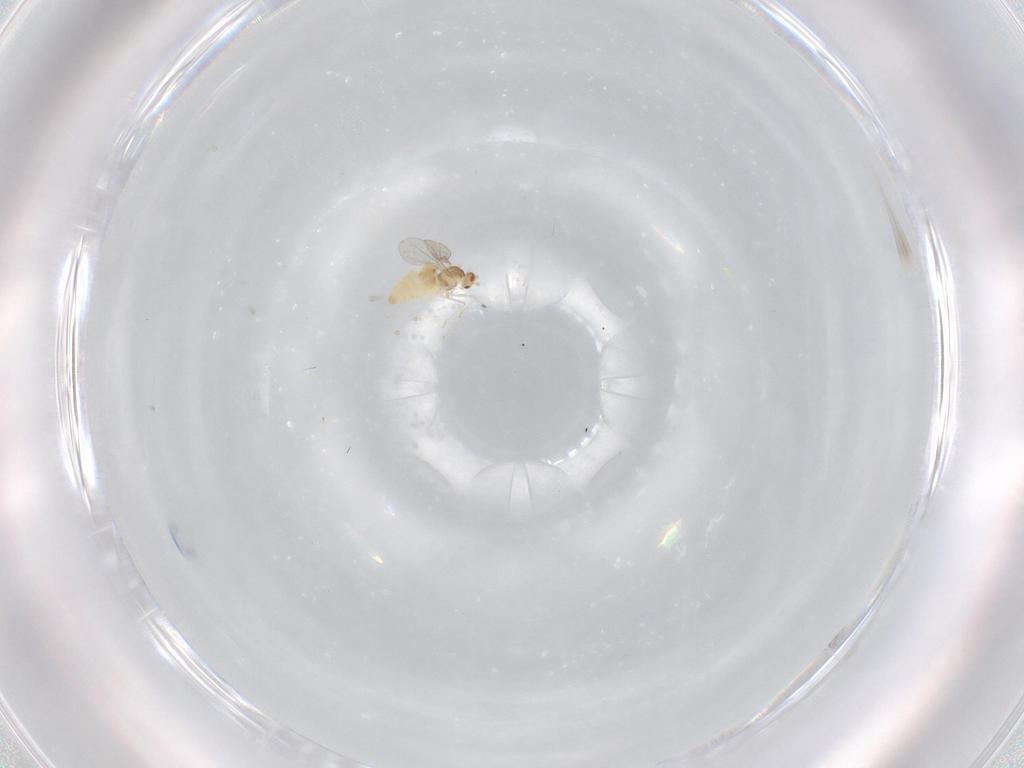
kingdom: Animalia
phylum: Arthropoda
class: Insecta
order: Diptera
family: Cecidomyiidae
